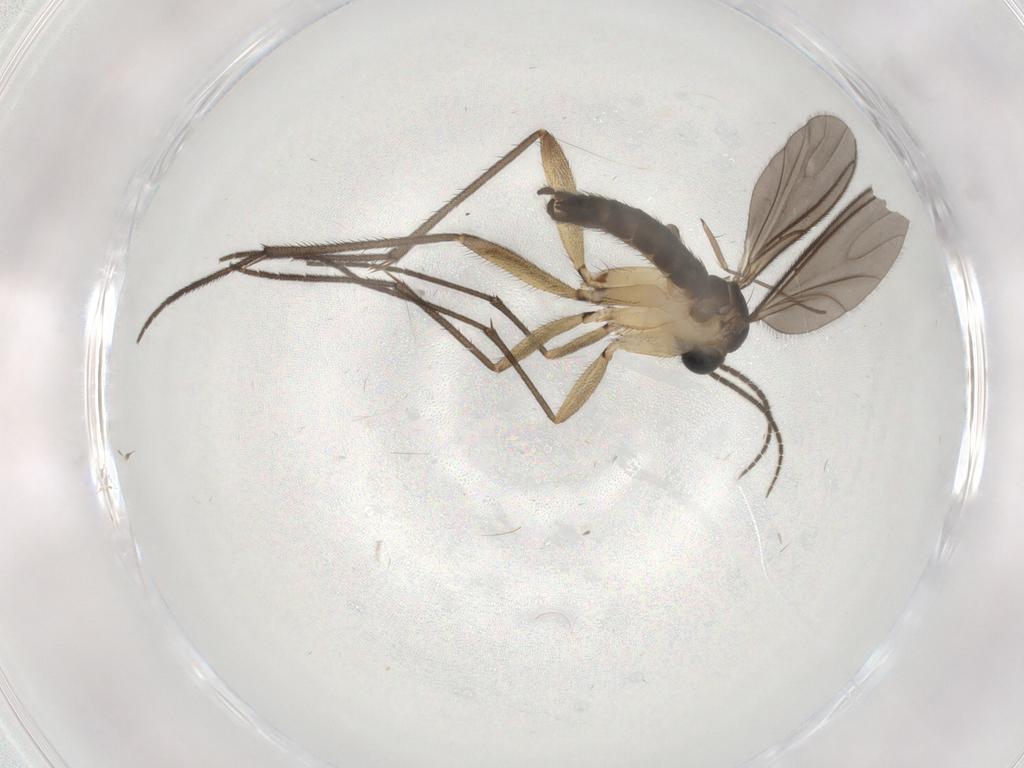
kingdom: Animalia
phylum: Arthropoda
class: Insecta
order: Diptera
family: Sciaridae
